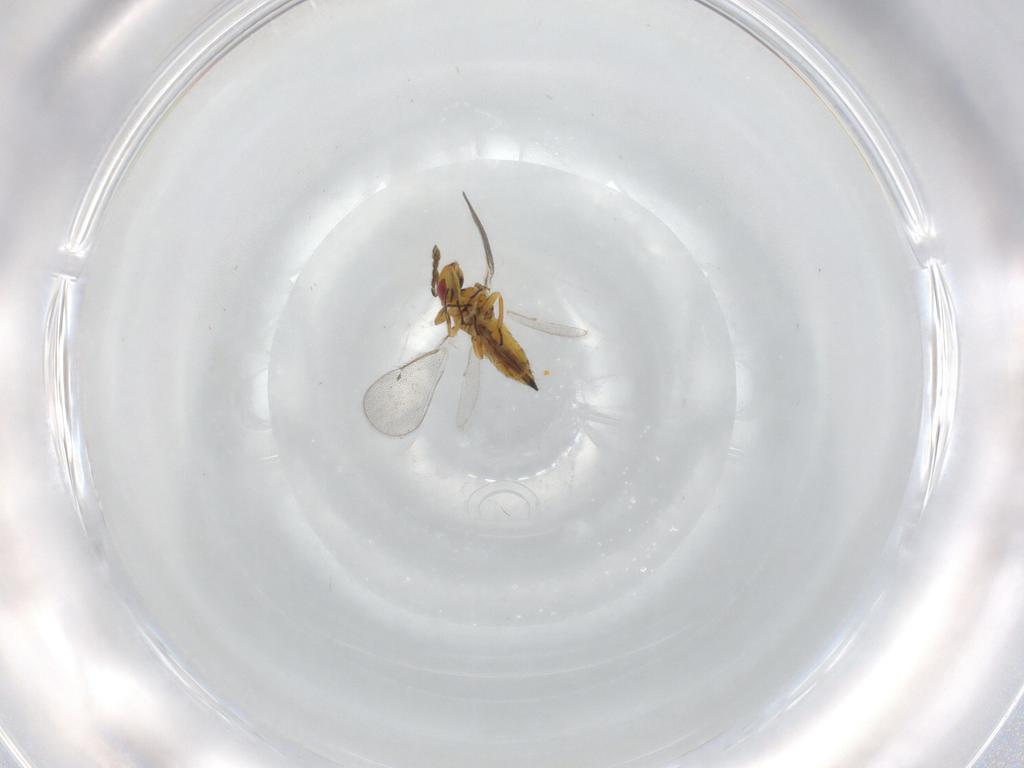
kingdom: Animalia
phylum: Arthropoda
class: Insecta
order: Hymenoptera
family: Eulophidae
